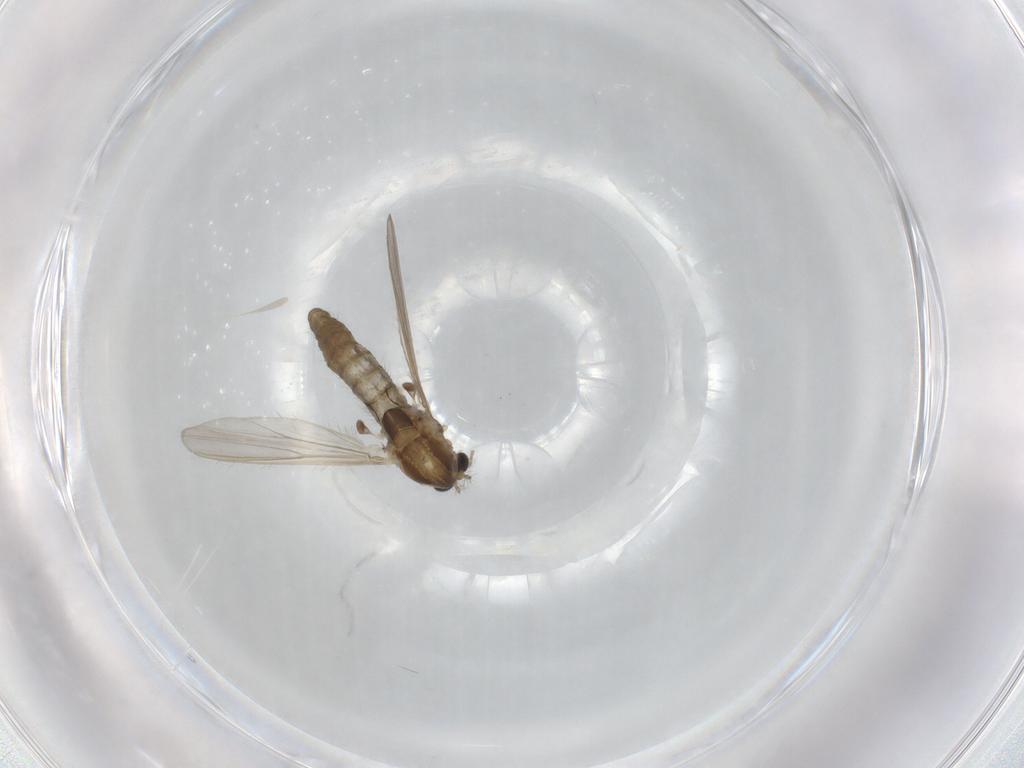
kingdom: Animalia
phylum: Arthropoda
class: Insecta
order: Diptera
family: Chironomidae
